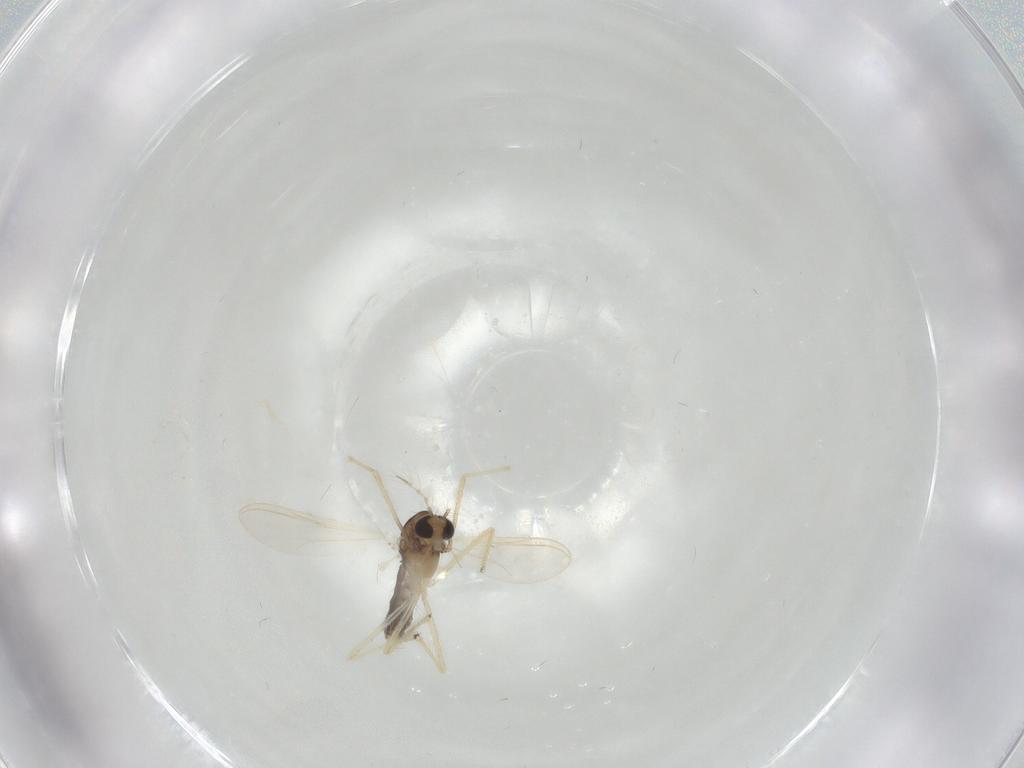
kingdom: Animalia
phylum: Arthropoda
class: Insecta
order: Diptera
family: Chironomidae
